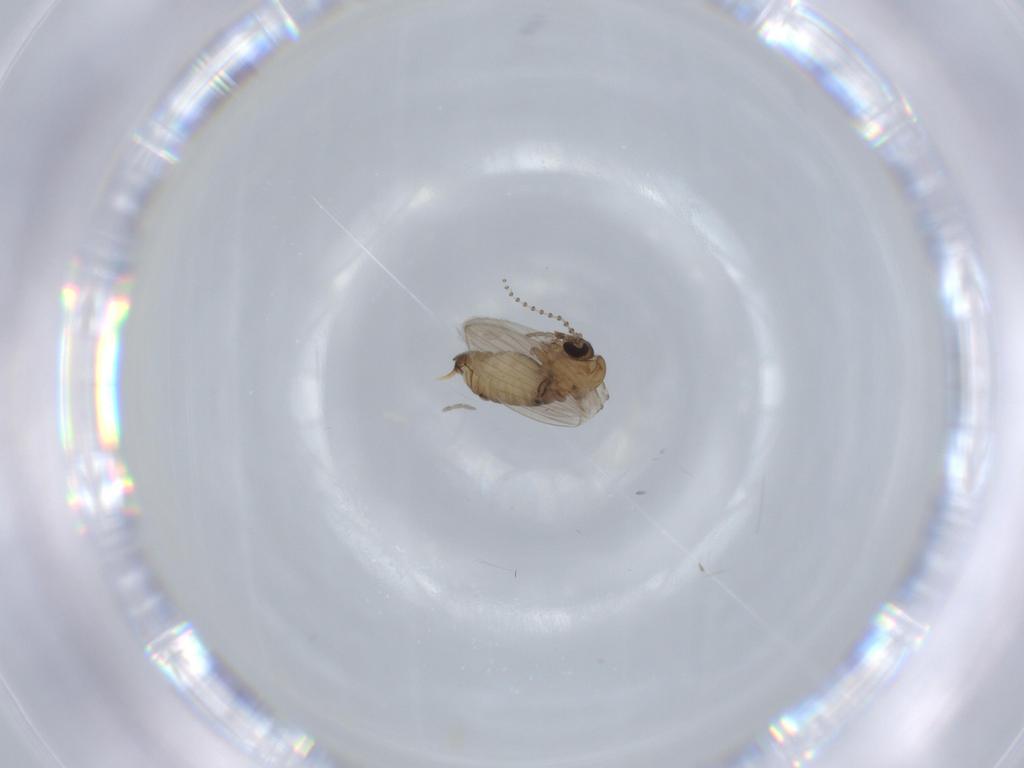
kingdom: Animalia
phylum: Arthropoda
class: Insecta
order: Diptera
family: Psychodidae
